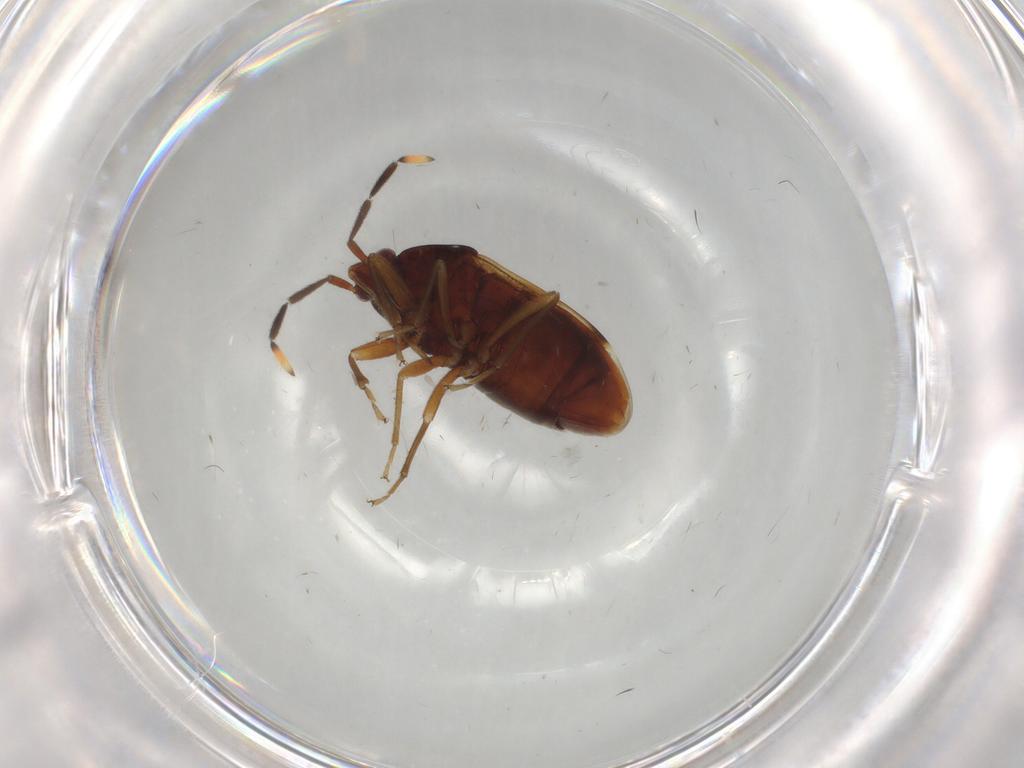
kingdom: Animalia
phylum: Arthropoda
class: Insecta
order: Hemiptera
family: Rhyparochromidae
